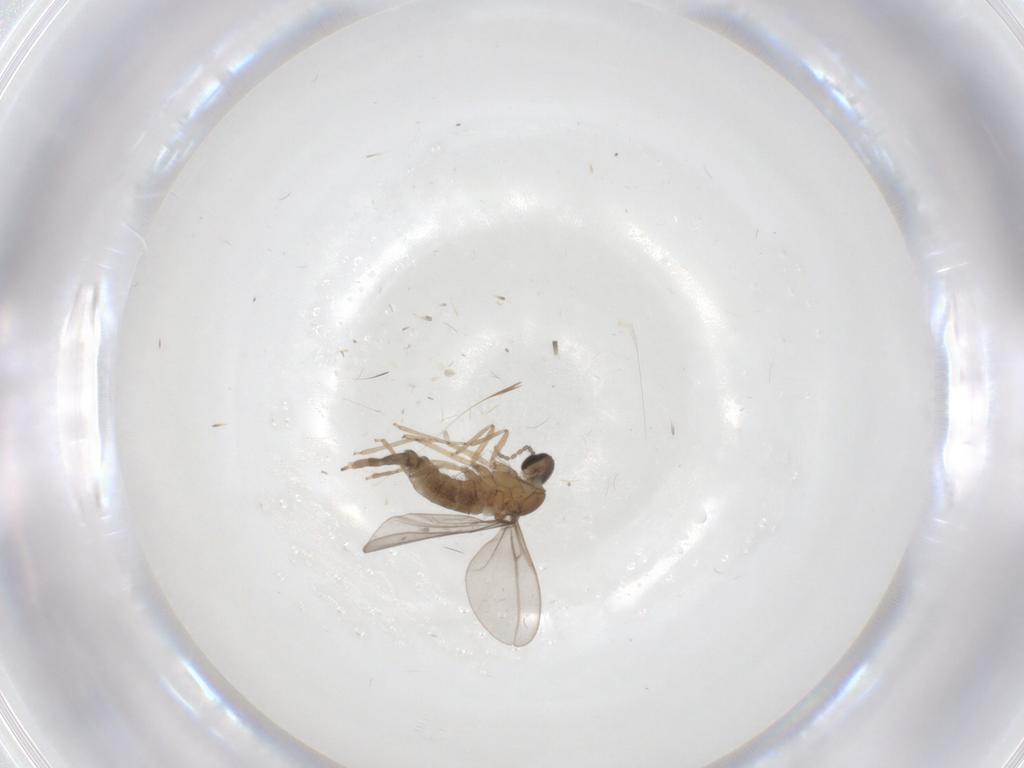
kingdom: Animalia
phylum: Arthropoda
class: Insecta
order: Diptera
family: Cecidomyiidae
